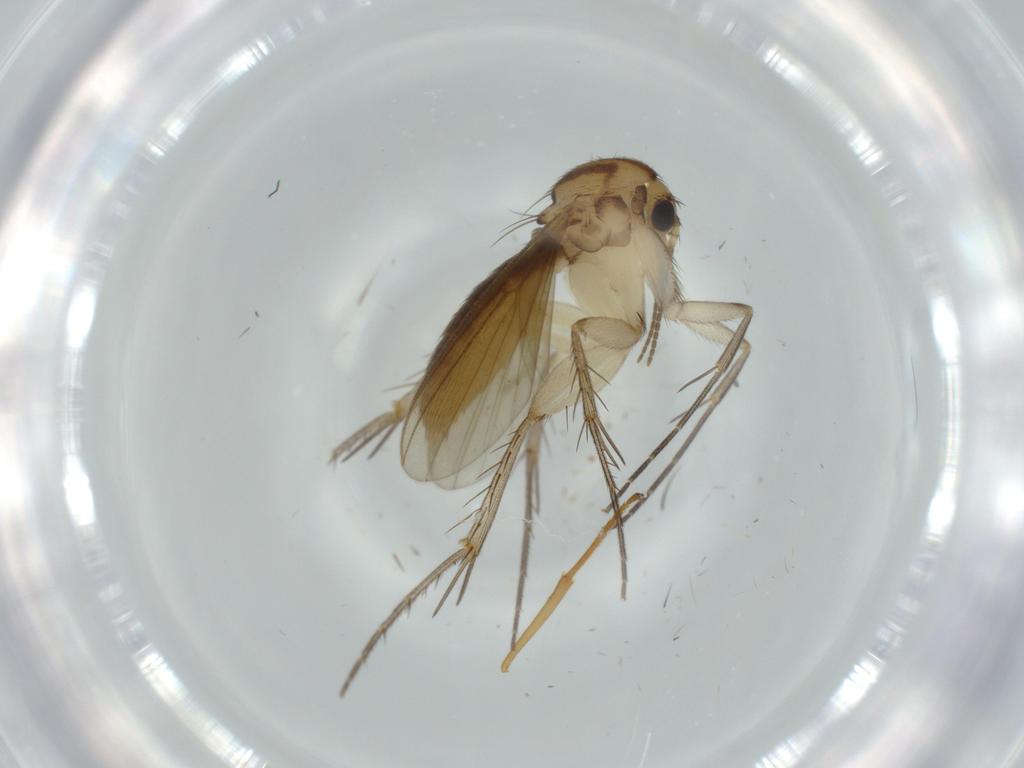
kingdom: Animalia
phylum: Arthropoda
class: Insecta
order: Diptera
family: Mycetophilidae
